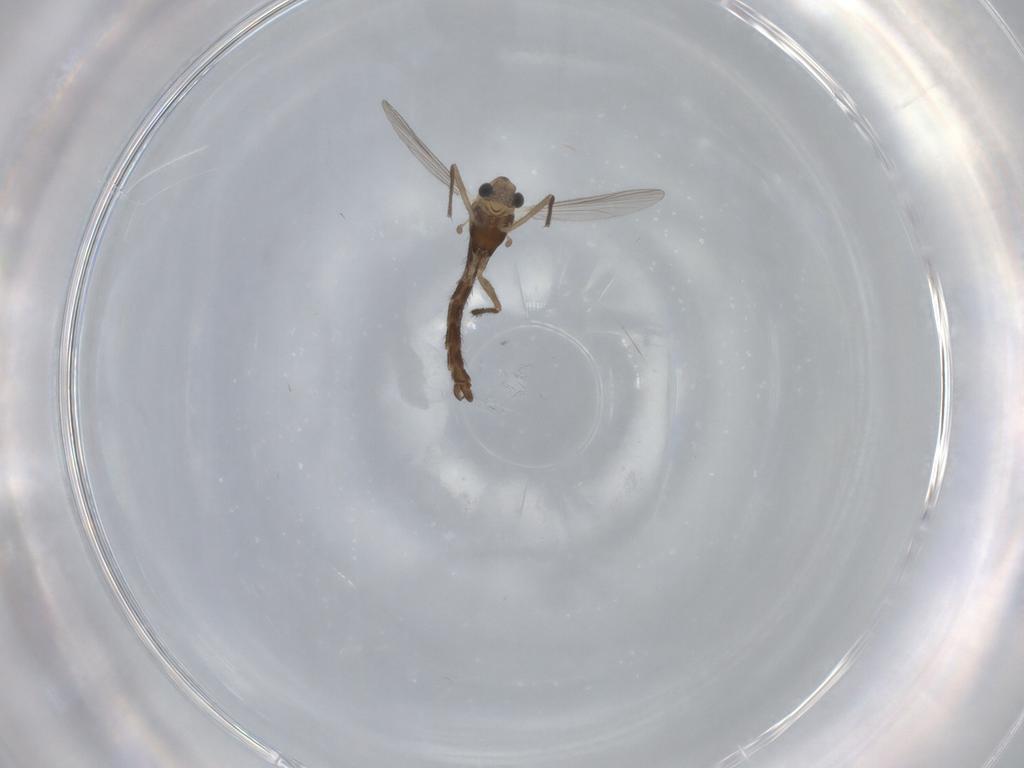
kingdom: Animalia
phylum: Arthropoda
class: Insecta
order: Diptera
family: Chironomidae
